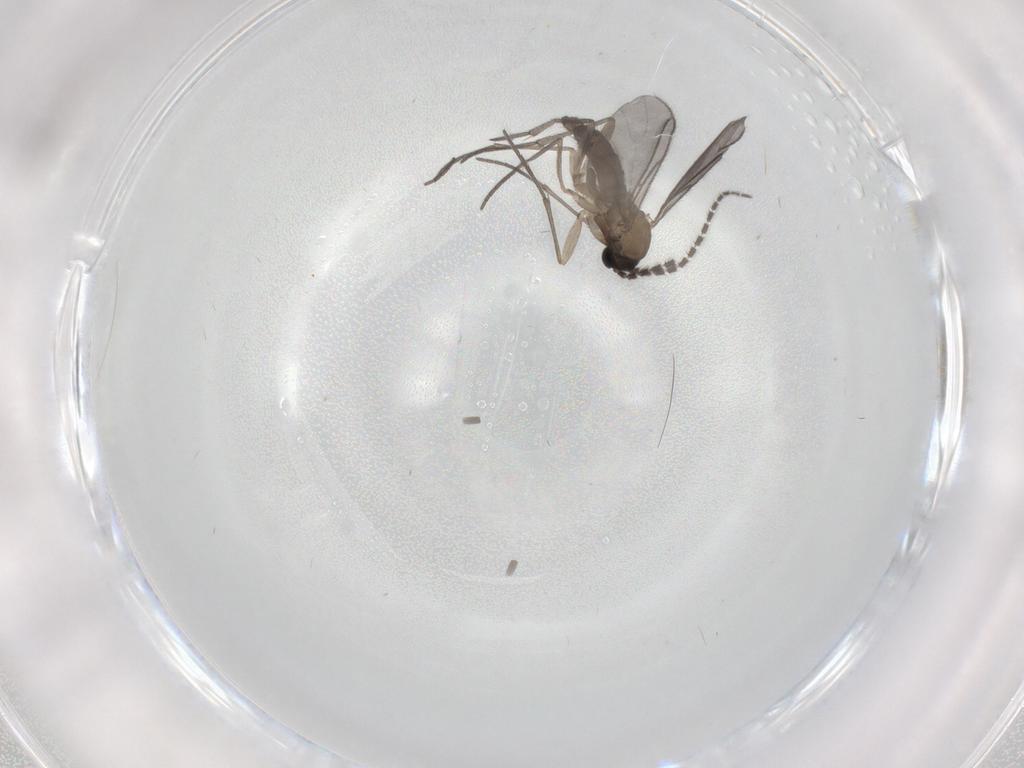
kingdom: Animalia
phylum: Arthropoda
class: Insecta
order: Diptera
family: Sciaridae
